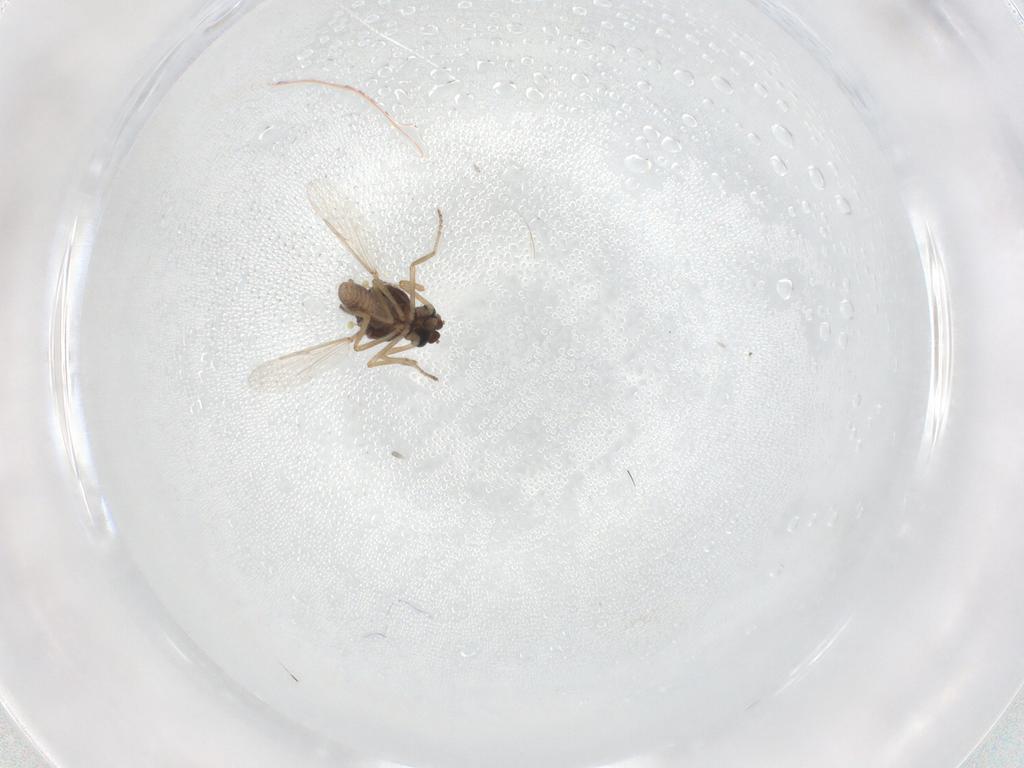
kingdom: Animalia
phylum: Arthropoda
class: Insecta
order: Diptera
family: Ceratopogonidae
